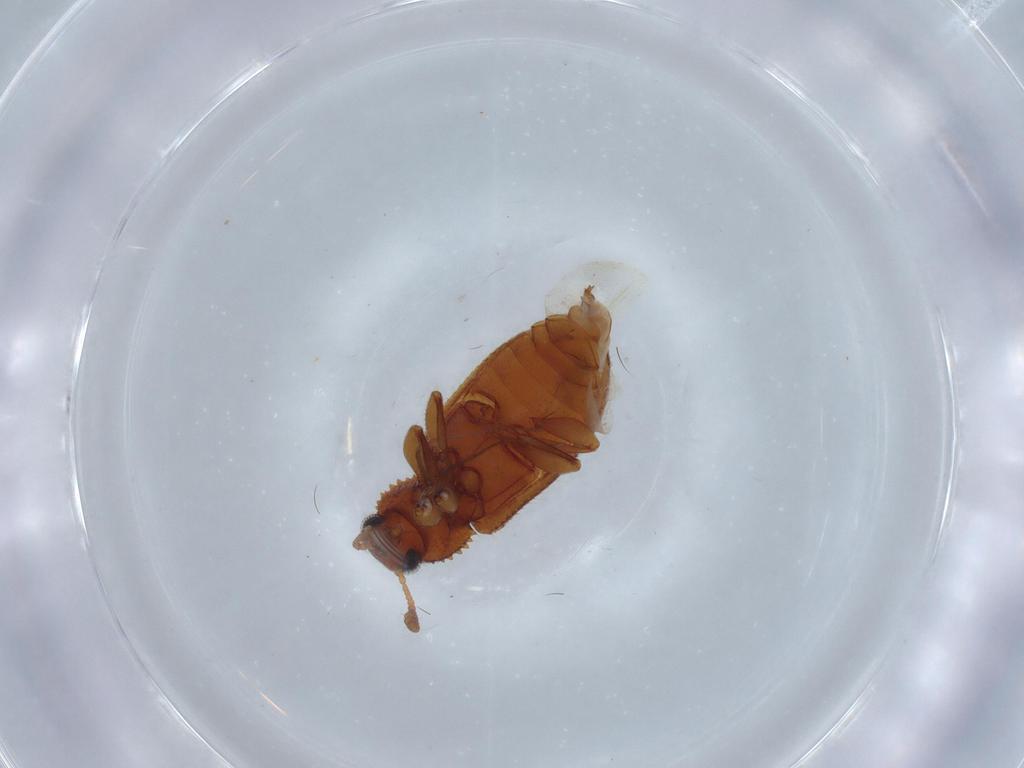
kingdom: Animalia
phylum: Arthropoda
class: Insecta
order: Coleoptera
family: Tenebrionidae
